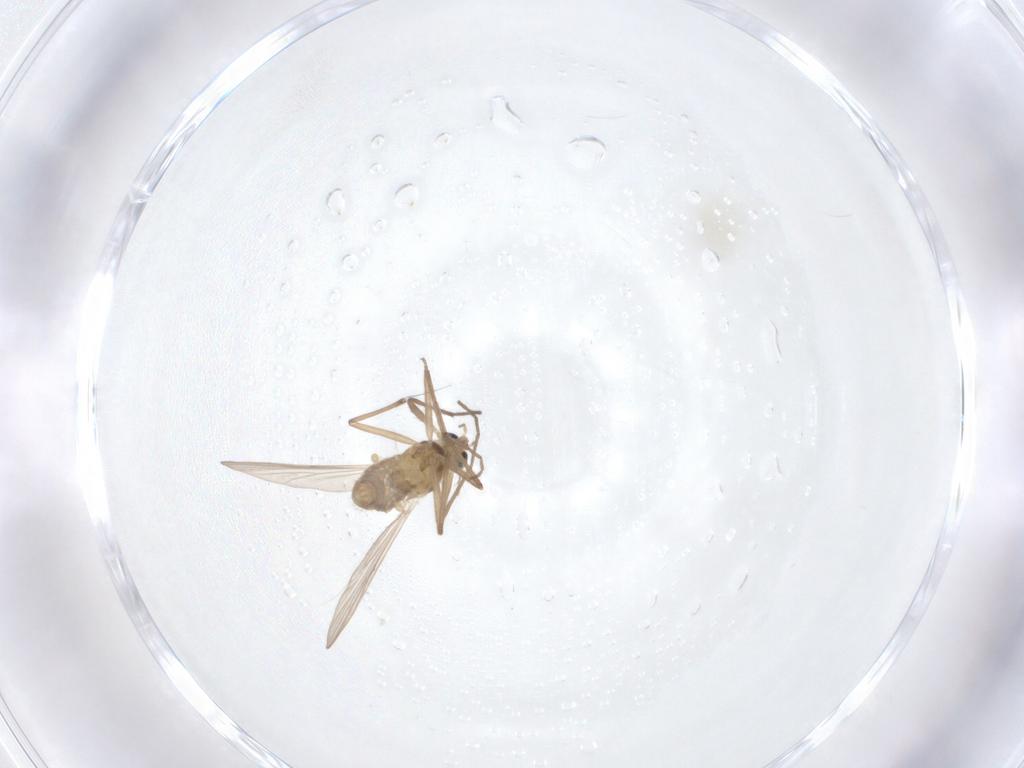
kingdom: Animalia
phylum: Arthropoda
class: Insecta
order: Diptera
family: Chironomidae
